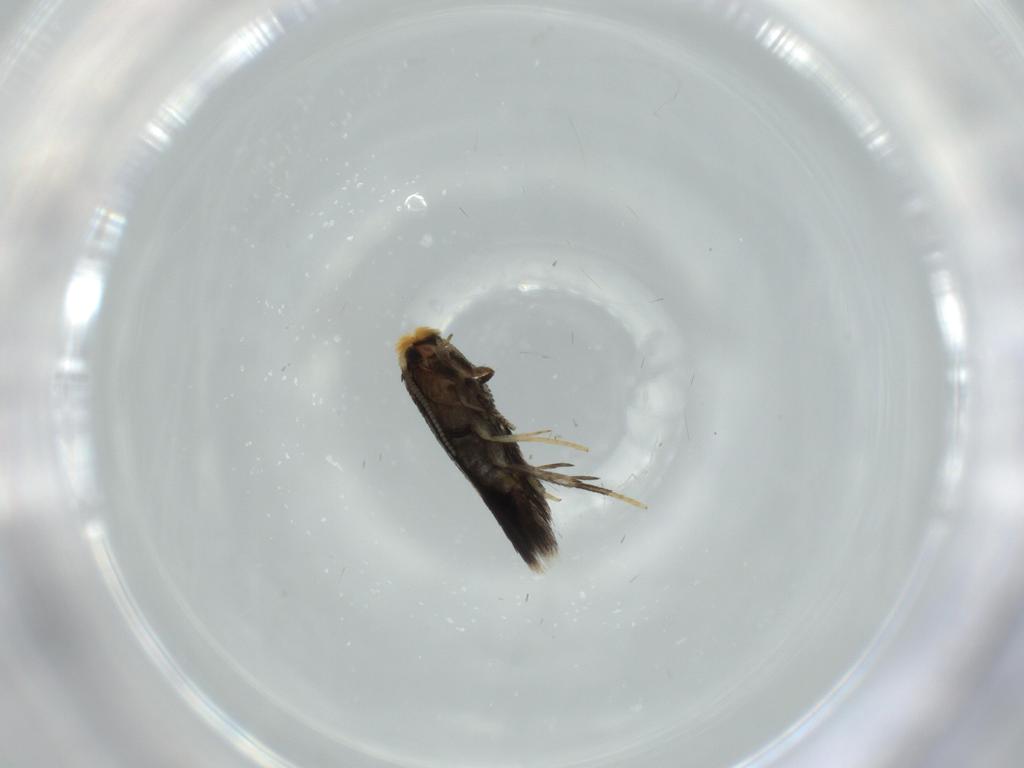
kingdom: Animalia
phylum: Arthropoda
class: Insecta
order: Lepidoptera
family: Nepticulidae
